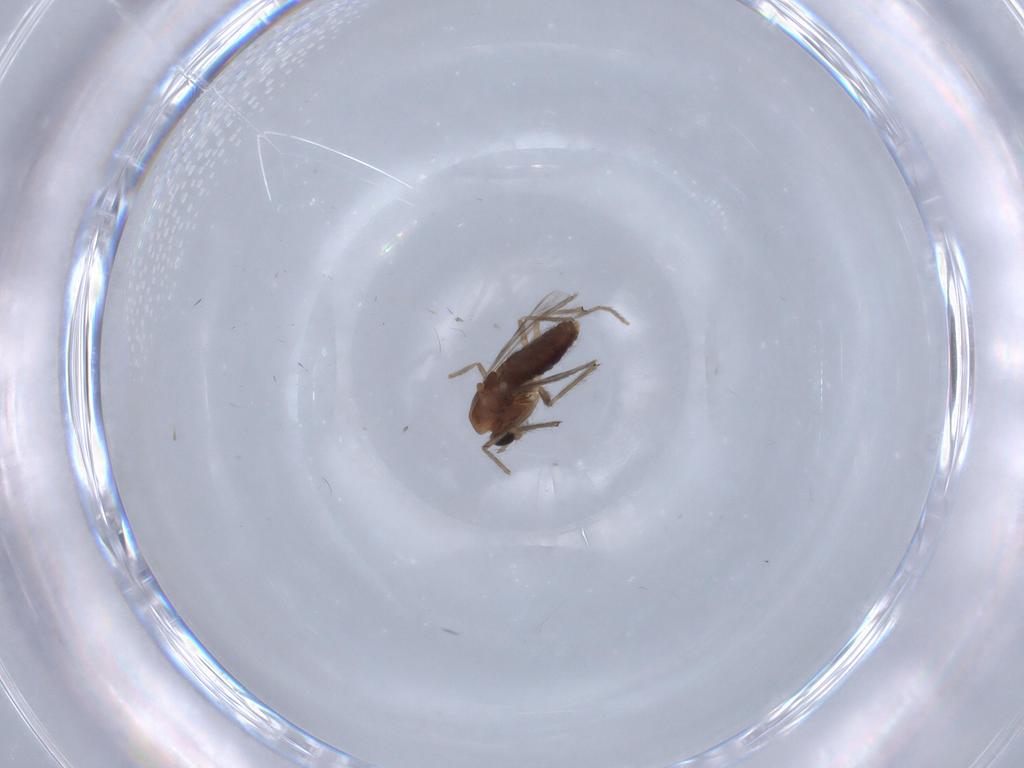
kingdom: Animalia
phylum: Arthropoda
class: Insecta
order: Diptera
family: Chironomidae
